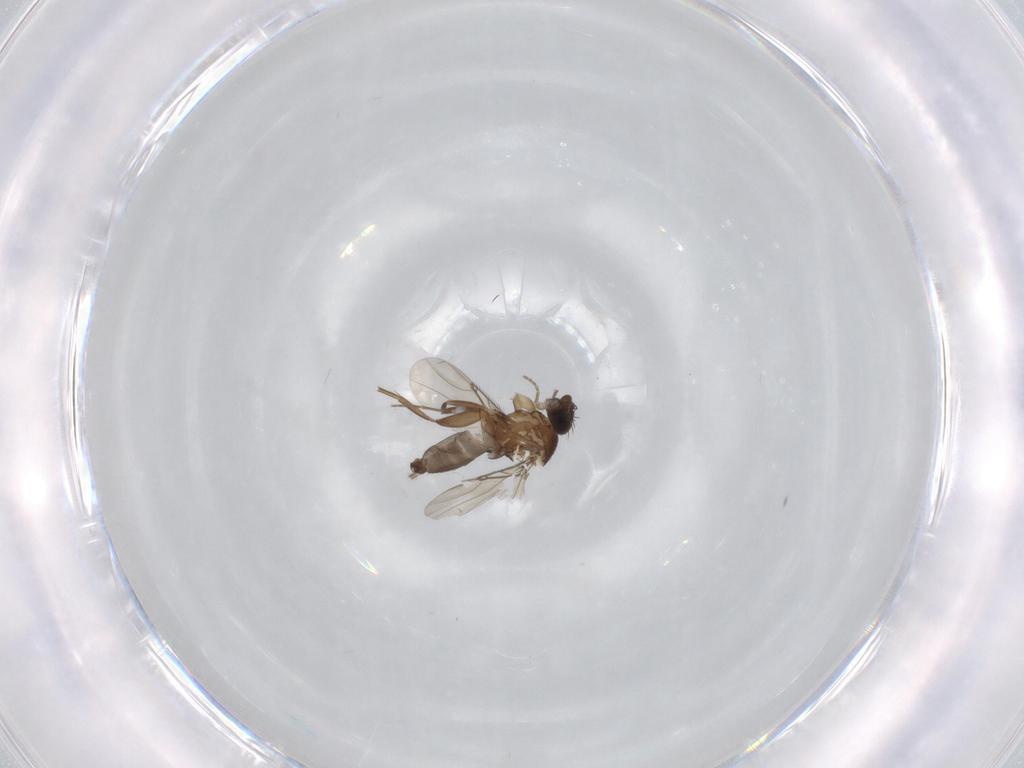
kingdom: Animalia
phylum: Arthropoda
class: Insecta
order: Diptera
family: Phoridae
